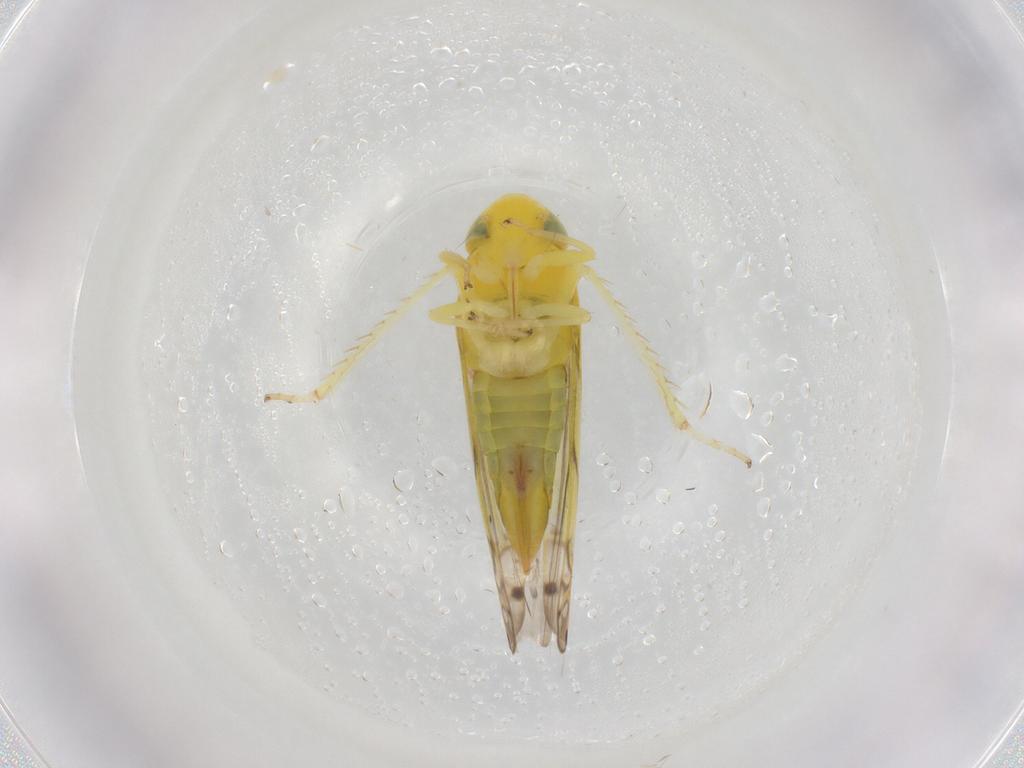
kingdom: Animalia
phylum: Arthropoda
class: Insecta
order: Hemiptera
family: Cicadellidae
